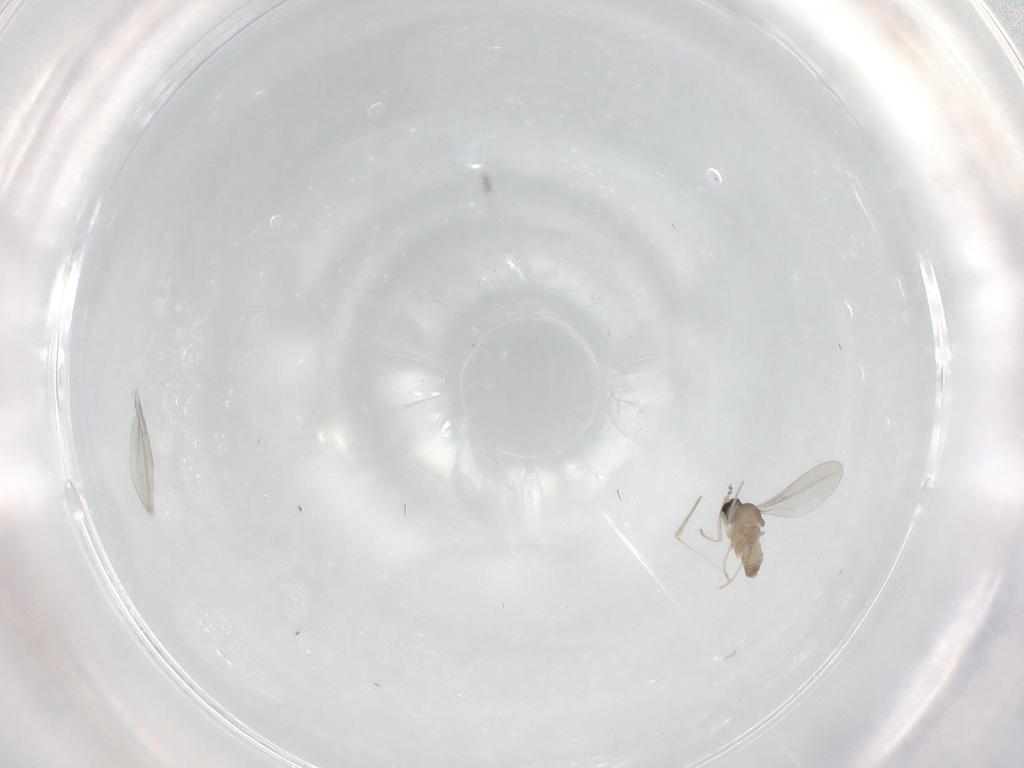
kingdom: Animalia
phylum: Arthropoda
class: Insecta
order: Diptera
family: Cecidomyiidae
